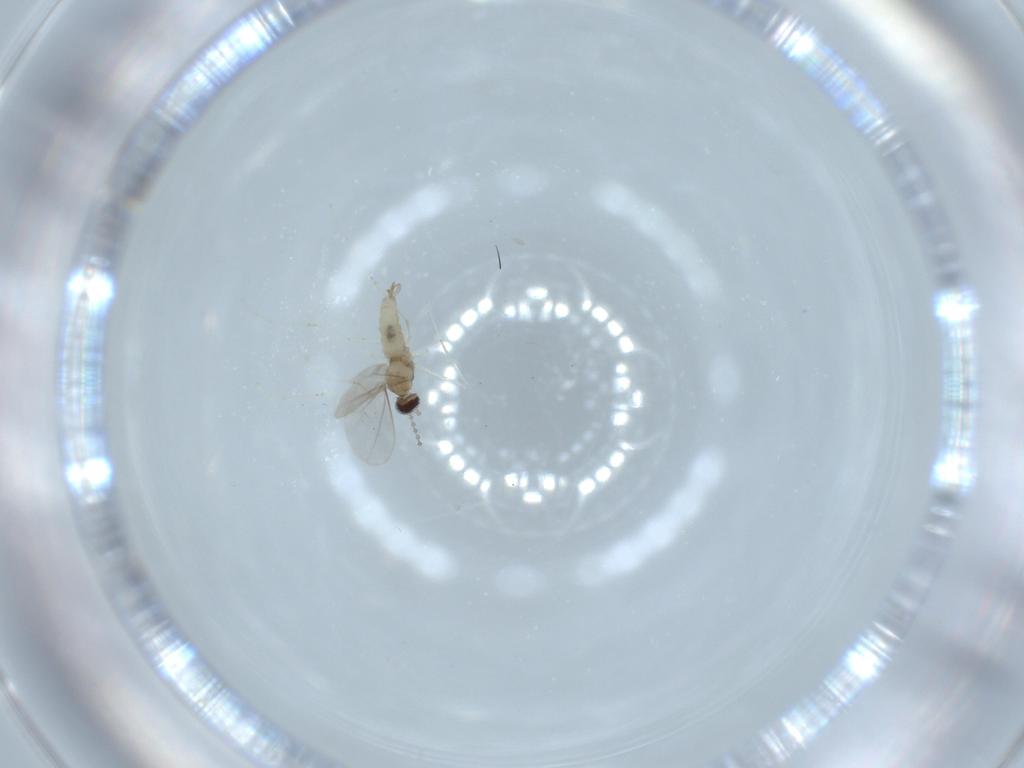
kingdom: Animalia
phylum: Arthropoda
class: Insecta
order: Diptera
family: Cecidomyiidae
